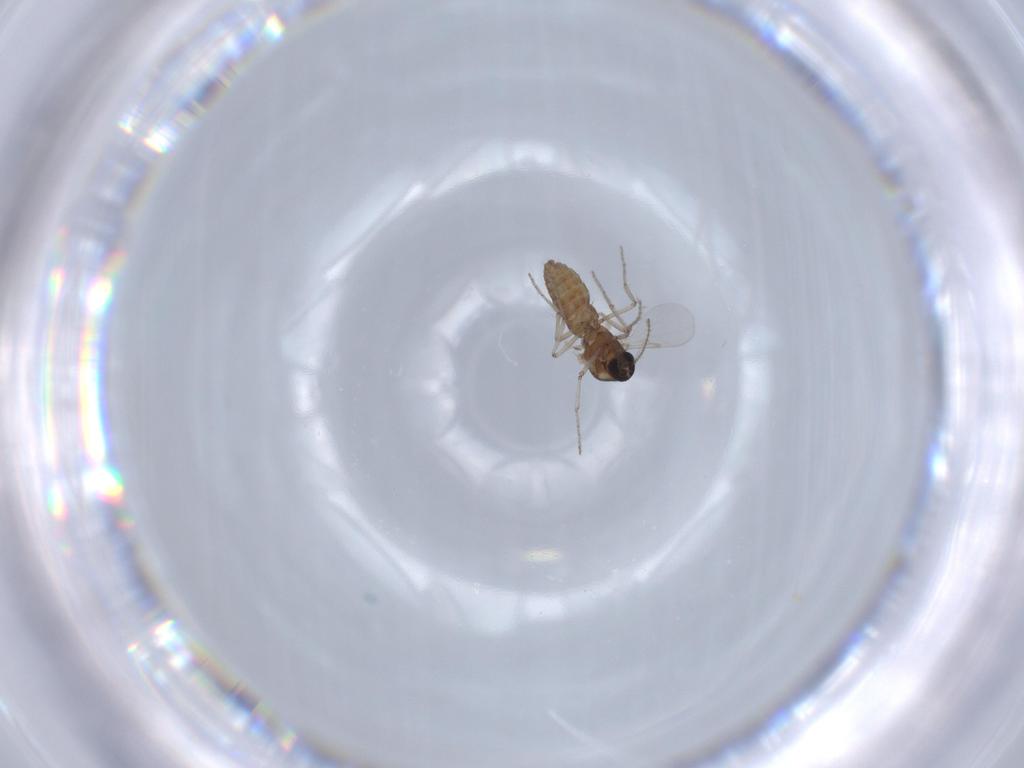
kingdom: Animalia
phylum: Arthropoda
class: Insecta
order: Diptera
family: Ceratopogonidae
